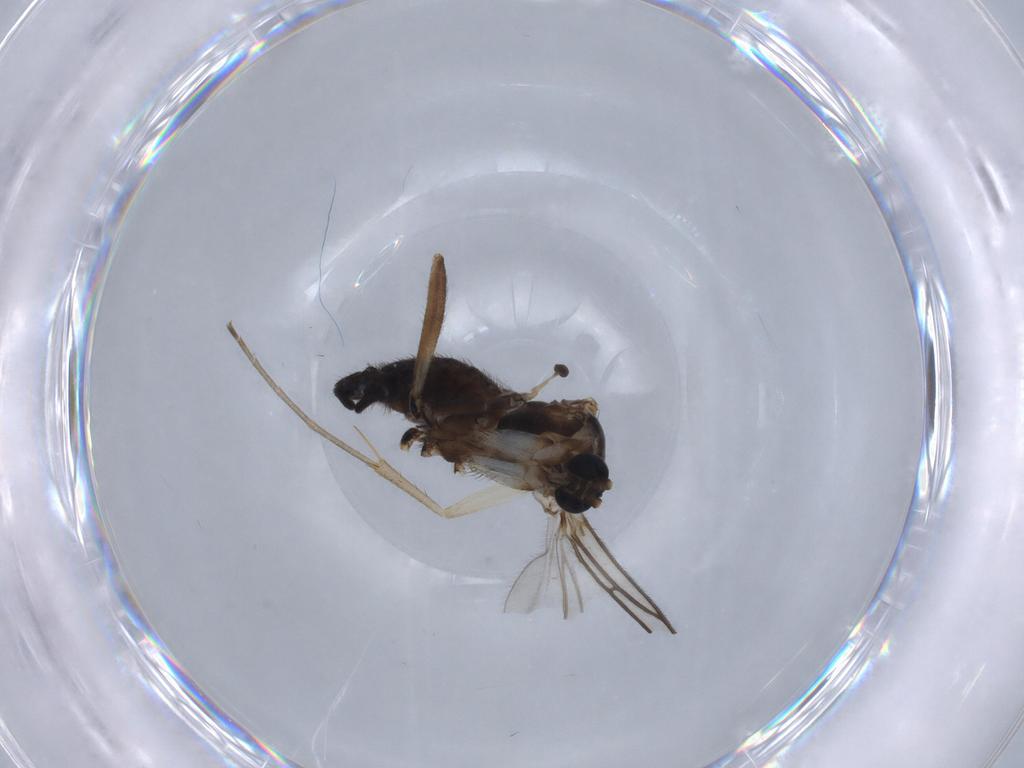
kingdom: Animalia
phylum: Arthropoda
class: Insecta
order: Diptera
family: Sciaridae
